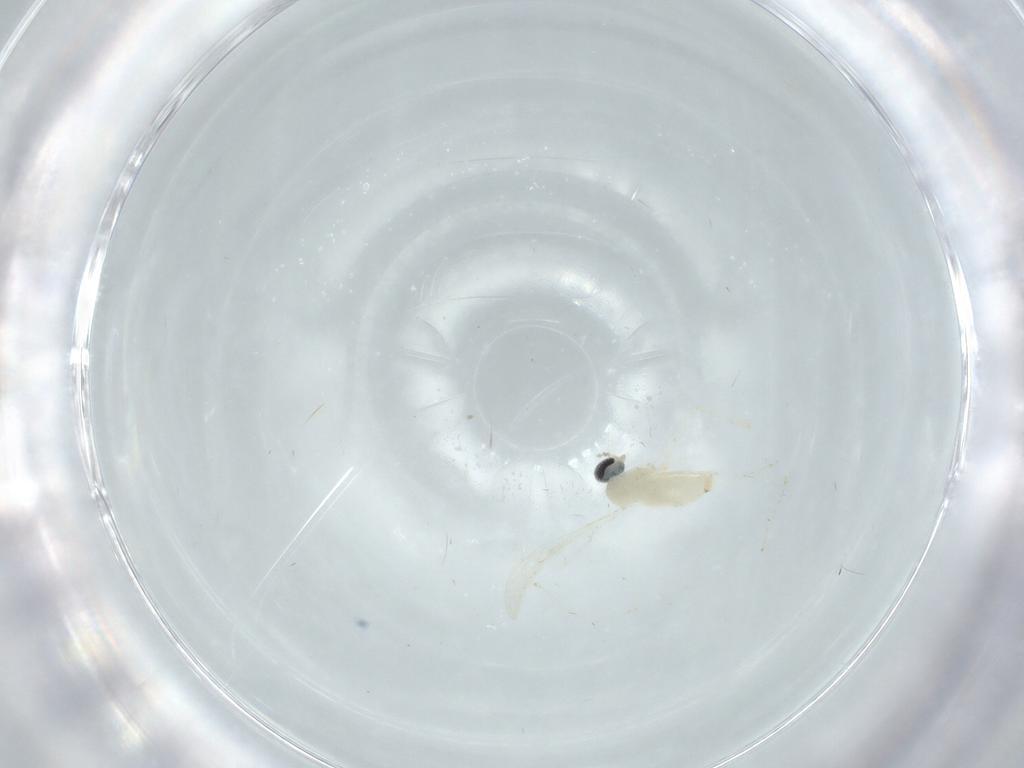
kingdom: Animalia
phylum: Arthropoda
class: Insecta
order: Diptera
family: Cecidomyiidae
